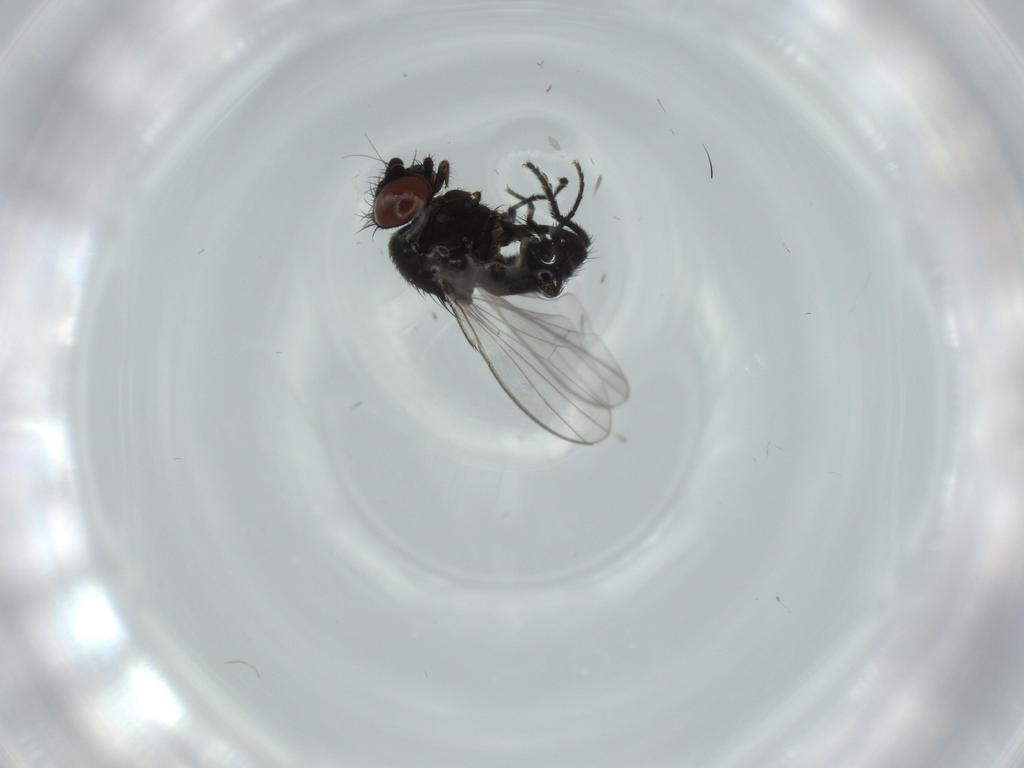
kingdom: Animalia
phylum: Arthropoda
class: Insecta
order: Diptera
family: Milichiidae
